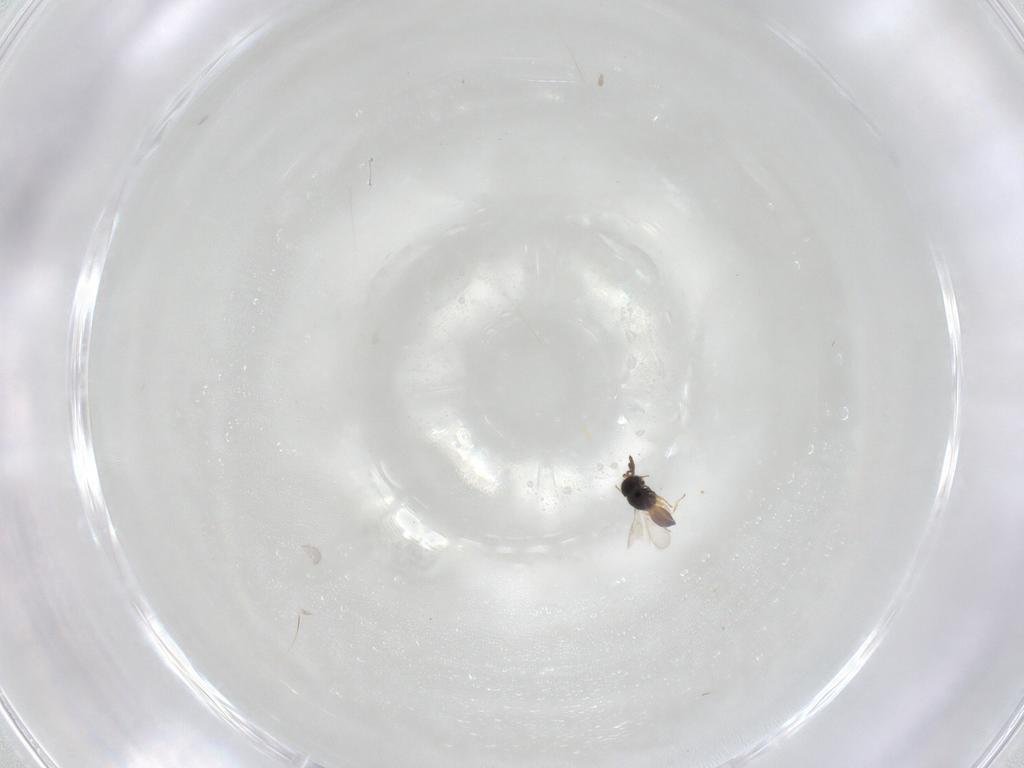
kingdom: Animalia
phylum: Arthropoda
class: Insecta
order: Hymenoptera
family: Scelionidae
